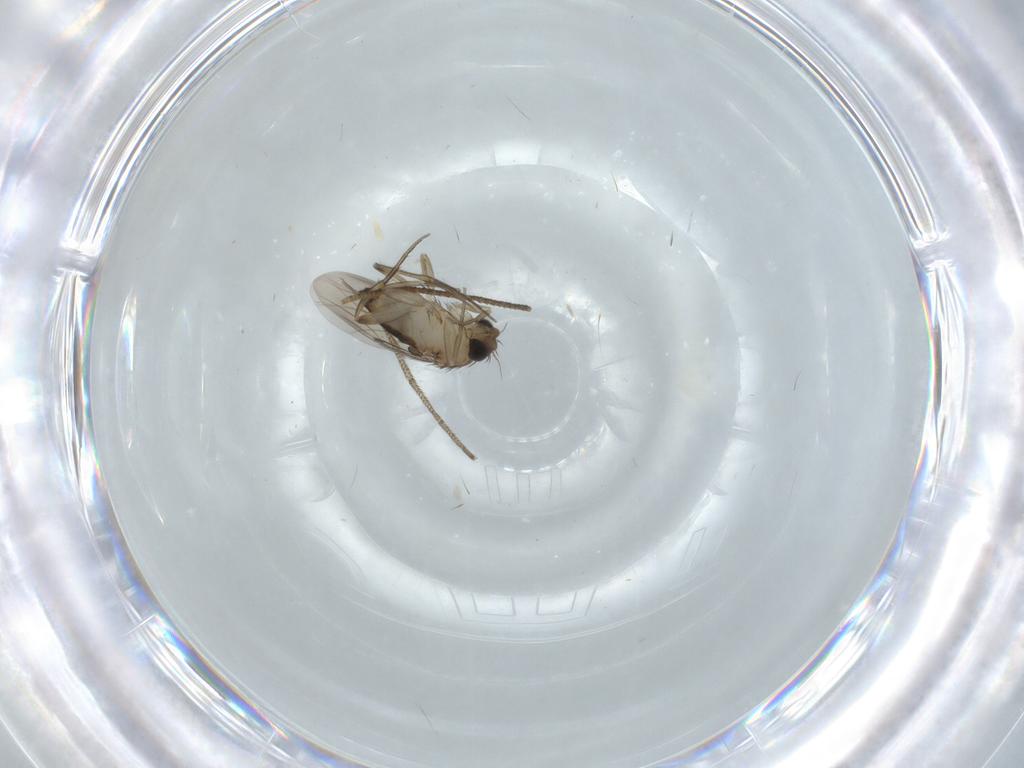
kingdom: Animalia
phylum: Arthropoda
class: Insecta
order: Diptera
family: Phoridae
